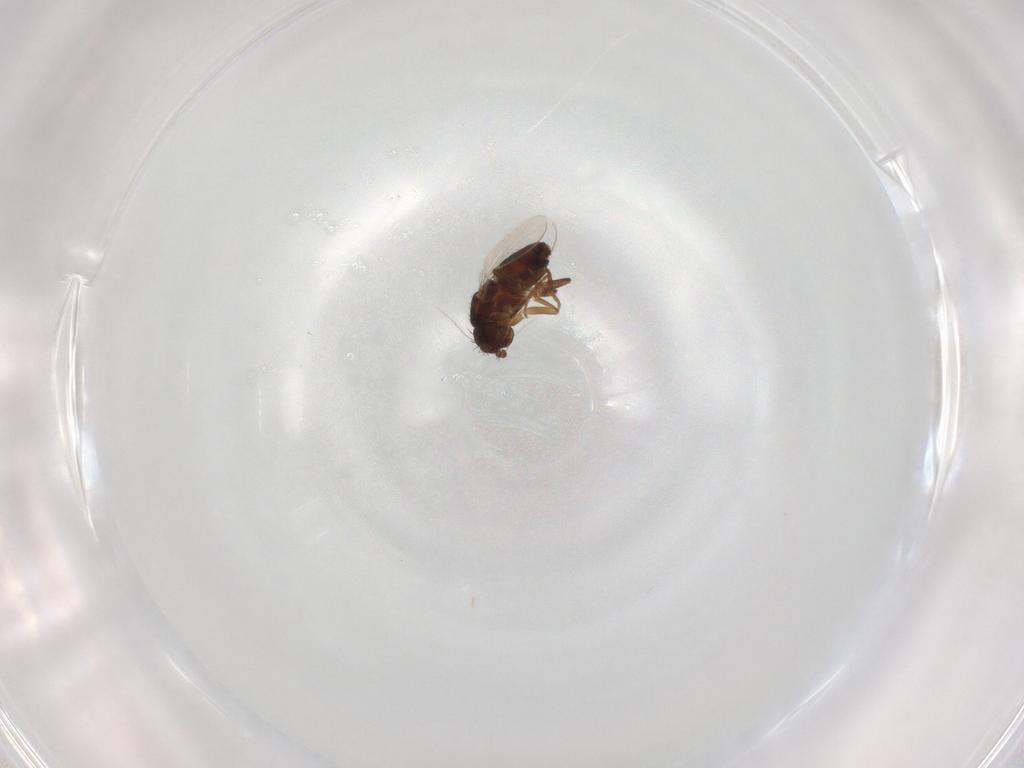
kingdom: Animalia
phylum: Arthropoda
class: Insecta
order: Diptera
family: Sphaeroceridae
